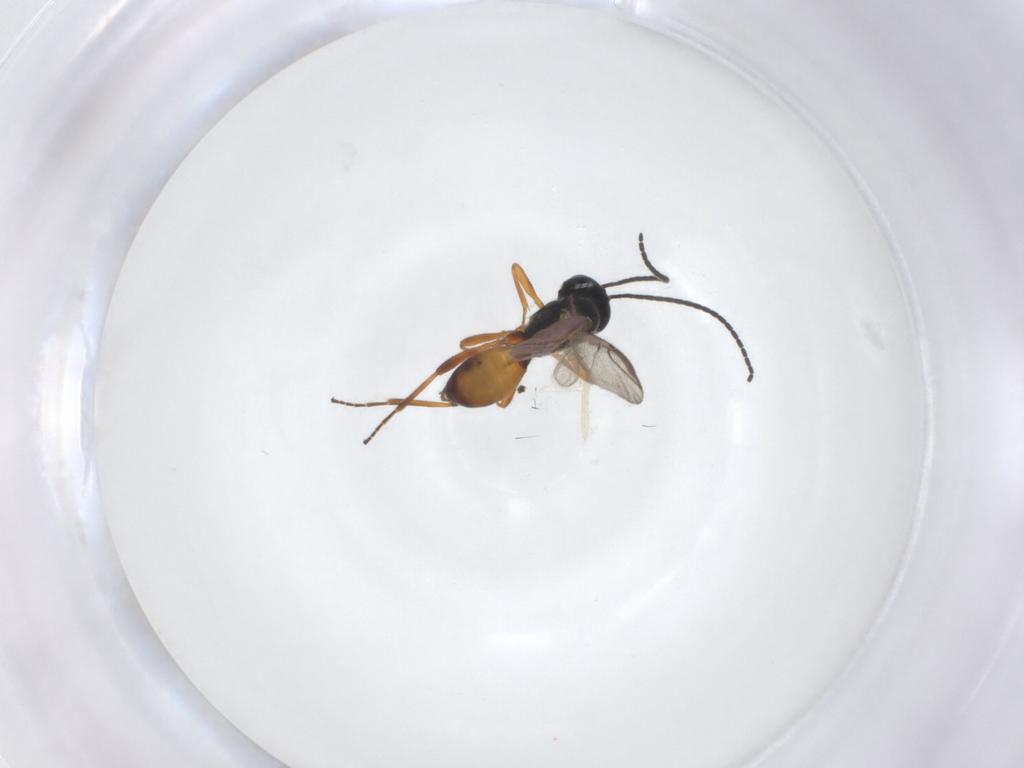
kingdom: Animalia
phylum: Arthropoda
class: Insecta
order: Hymenoptera
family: Braconidae
